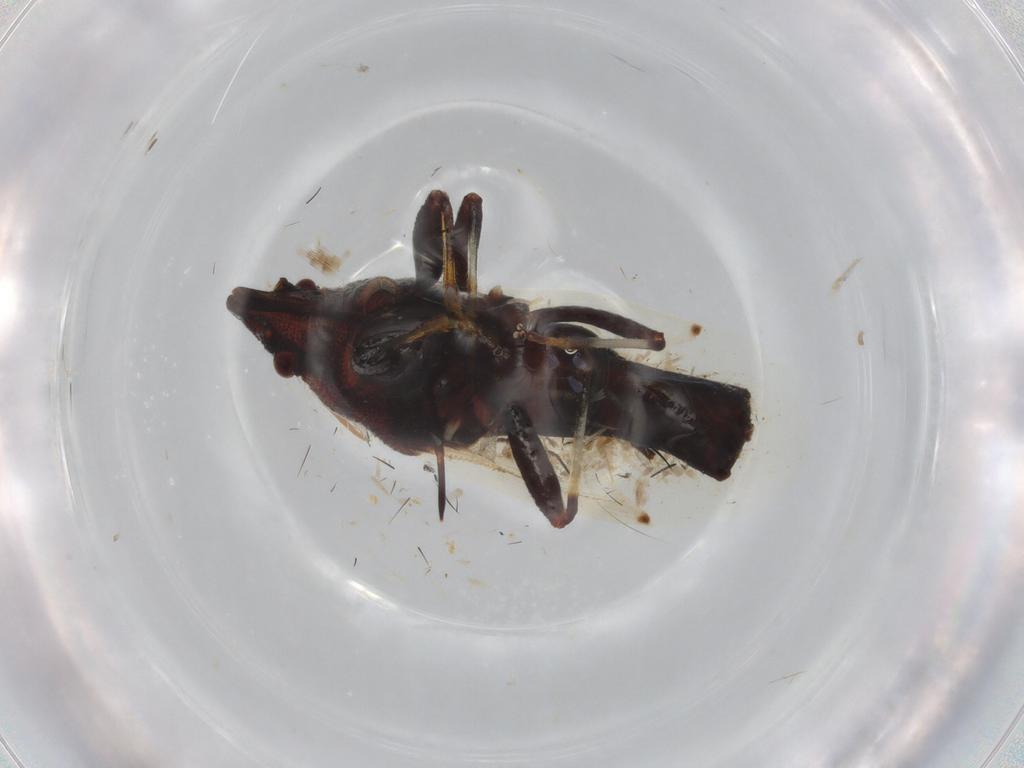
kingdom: Animalia
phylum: Arthropoda
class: Insecta
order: Hemiptera
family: Oxycarenidae
